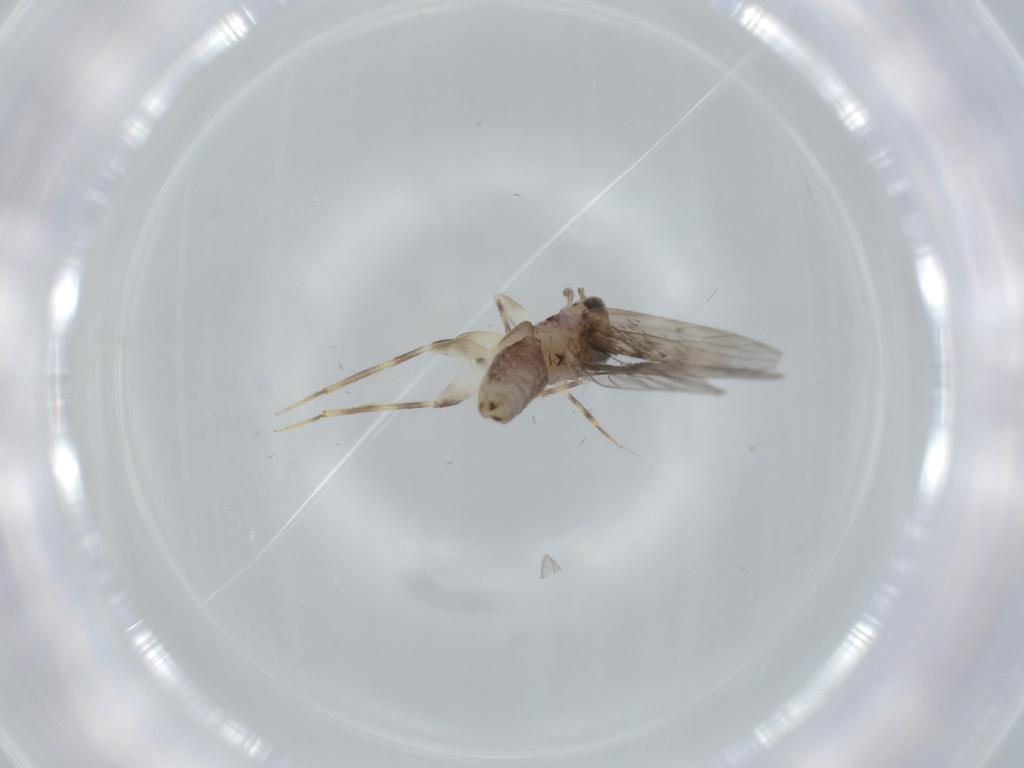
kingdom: Animalia
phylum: Arthropoda
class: Insecta
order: Psocodea
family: Lepidopsocidae
